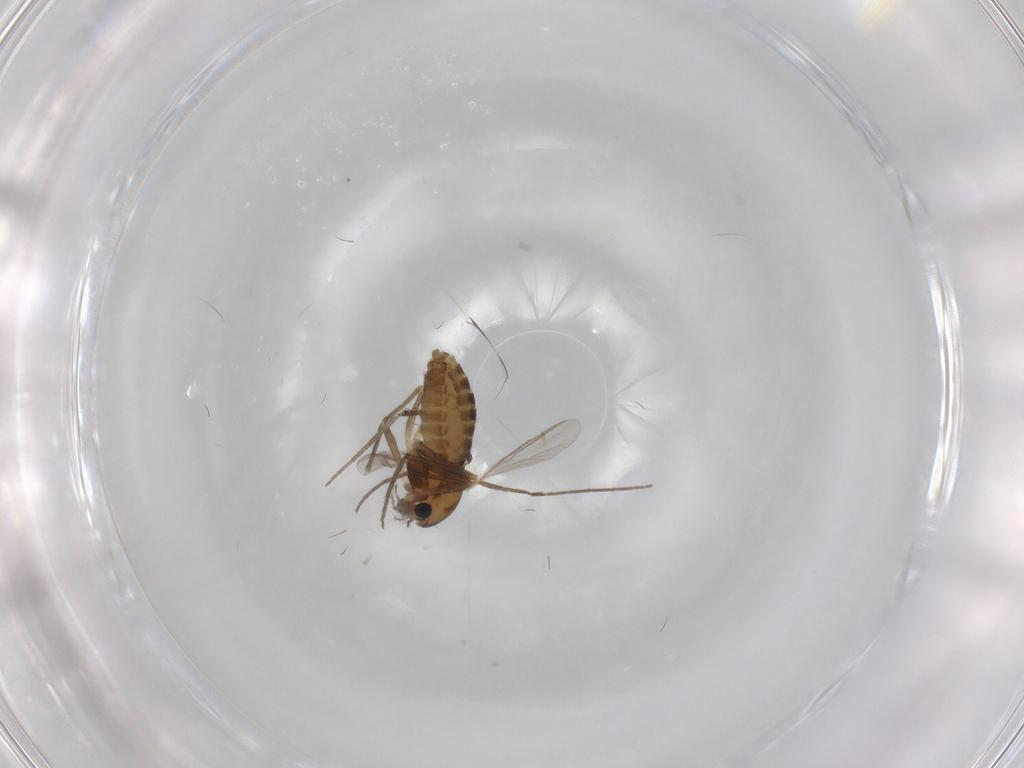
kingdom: Animalia
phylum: Arthropoda
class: Insecta
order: Diptera
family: Chironomidae
